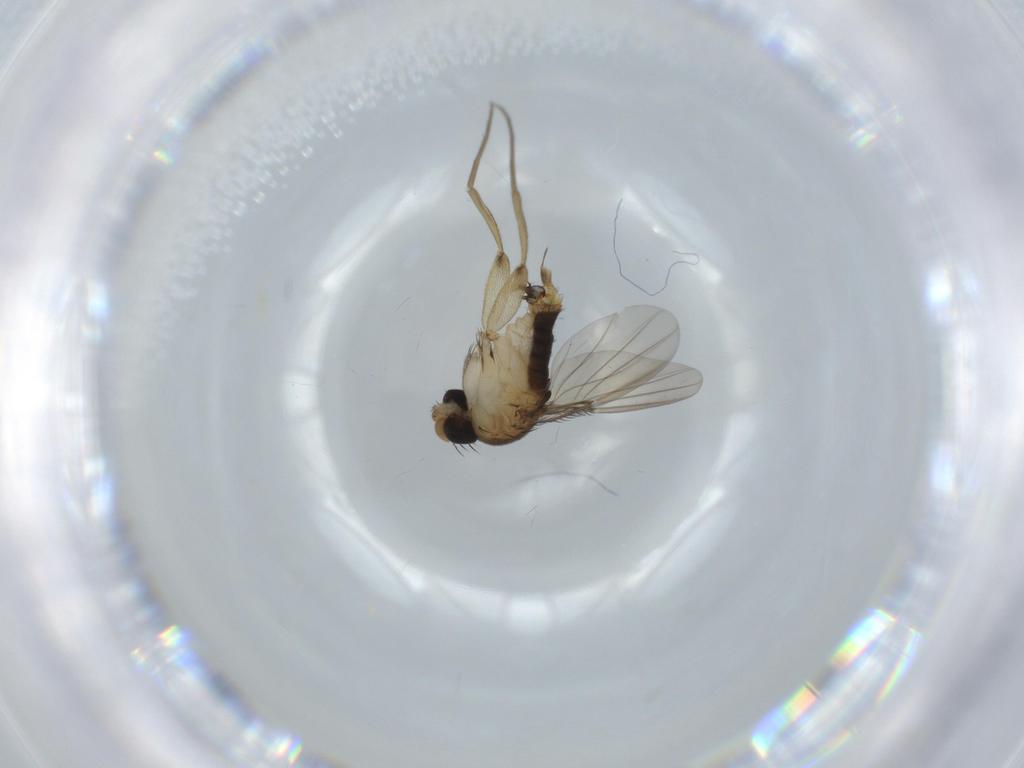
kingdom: Animalia
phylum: Arthropoda
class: Insecta
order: Diptera
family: Phoridae
